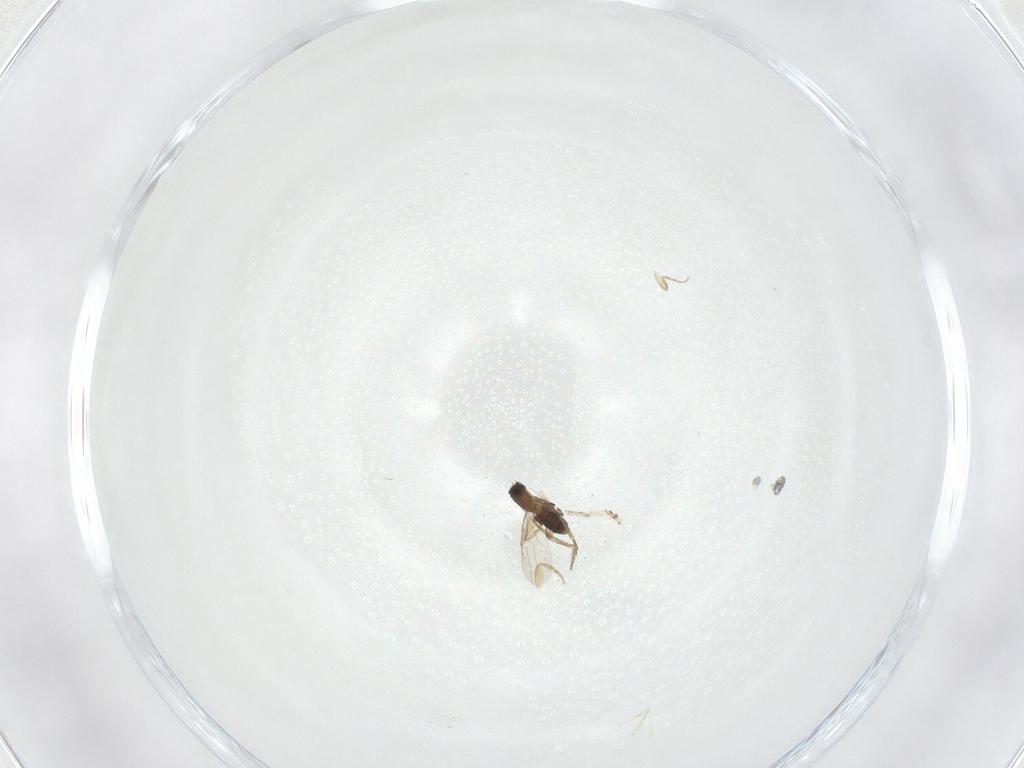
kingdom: Animalia
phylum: Arthropoda
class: Insecta
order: Diptera
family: Phoridae
